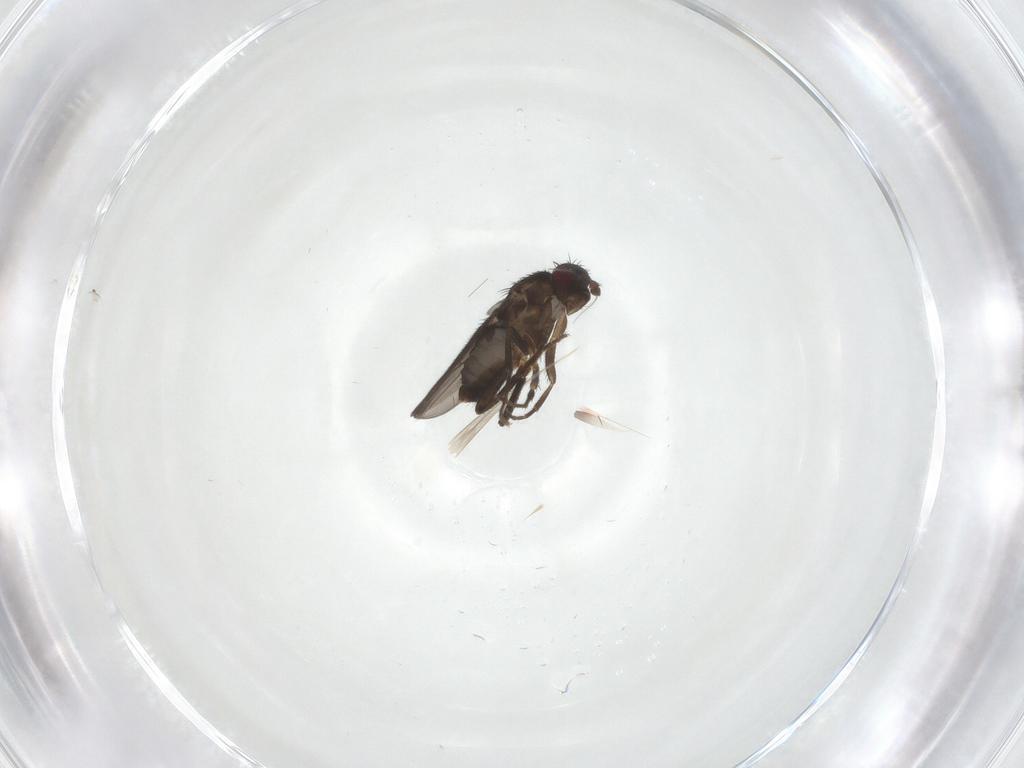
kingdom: Animalia
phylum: Arthropoda
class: Insecta
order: Diptera
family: Sphaeroceridae
